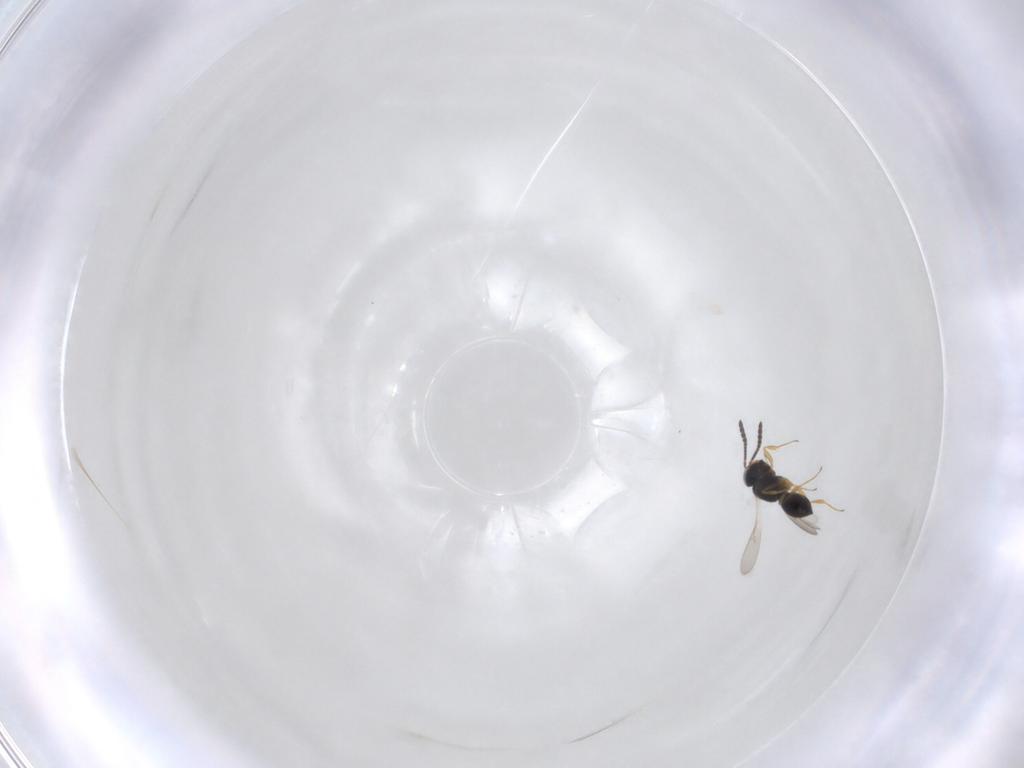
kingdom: Animalia
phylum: Arthropoda
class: Insecta
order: Hymenoptera
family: Scelionidae
